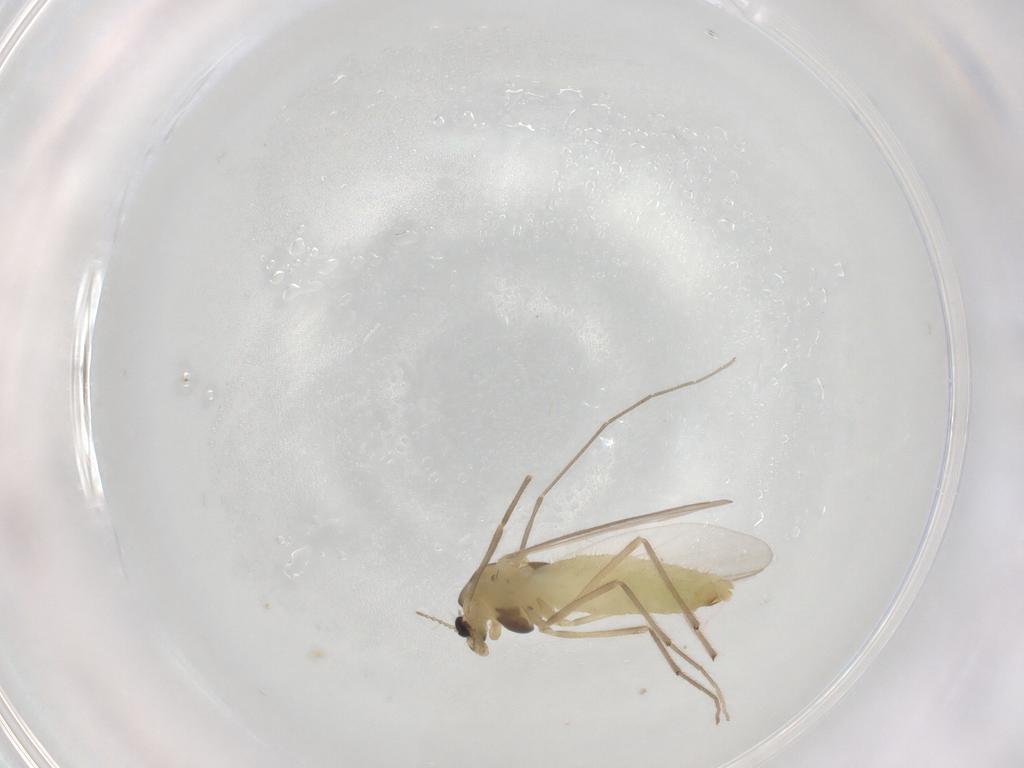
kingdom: Animalia
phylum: Arthropoda
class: Insecta
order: Diptera
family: Chironomidae
